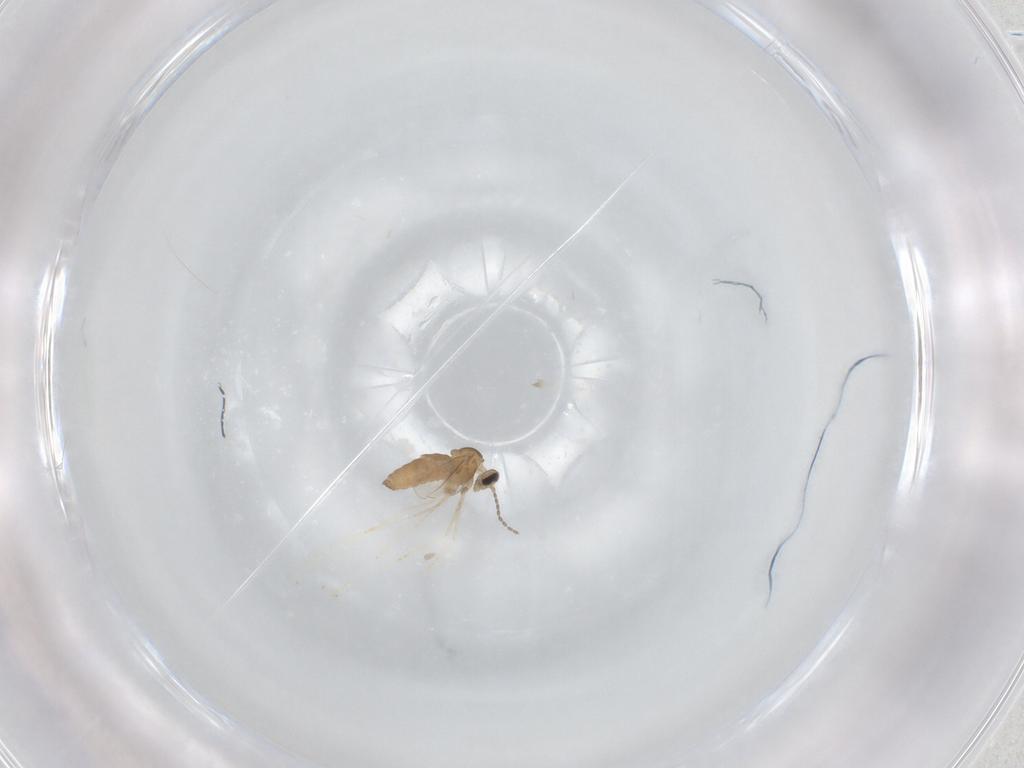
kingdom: Animalia
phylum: Arthropoda
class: Insecta
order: Diptera
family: Cecidomyiidae
